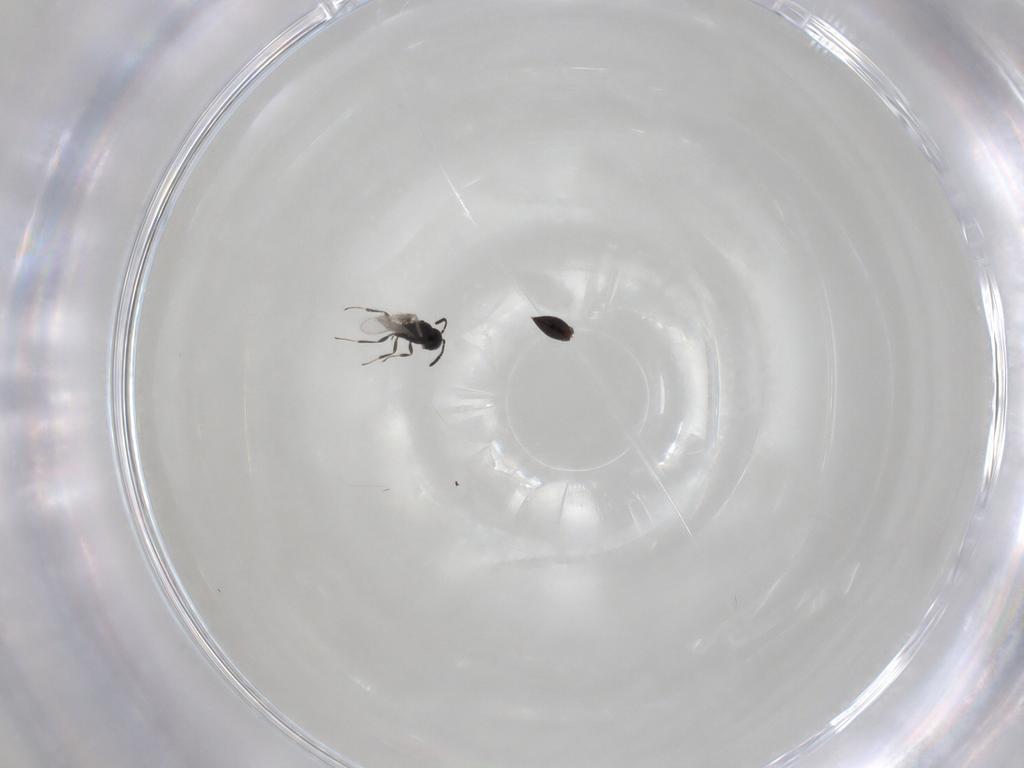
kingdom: Animalia
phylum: Arthropoda
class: Insecta
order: Hymenoptera
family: Scelionidae
